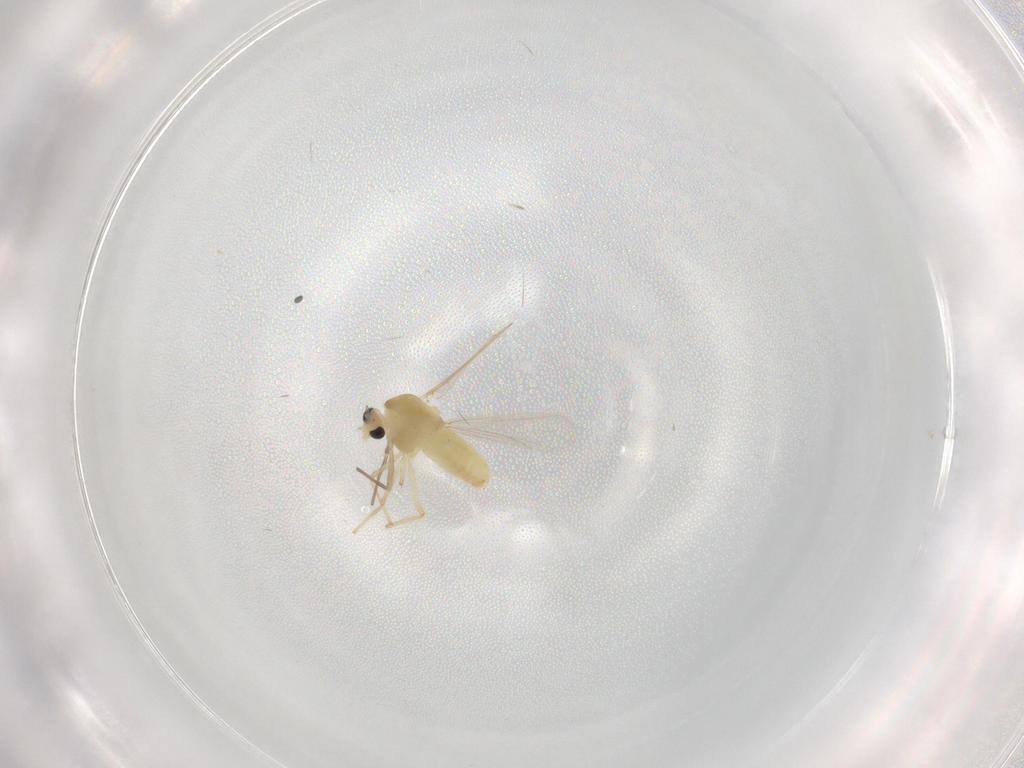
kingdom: Animalia
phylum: Arthropoda
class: Insecta
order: Diptera
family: Chironomidae
